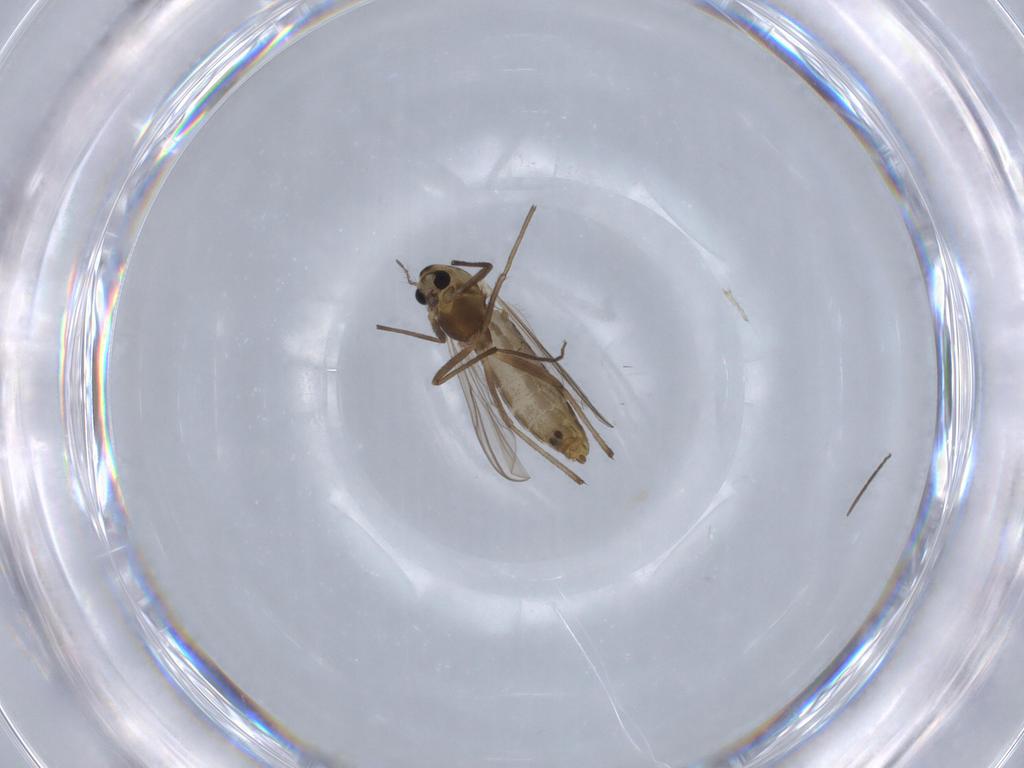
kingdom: Animalia
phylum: Arthropoda
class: Insecta
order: Diptera
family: Chironomidae
